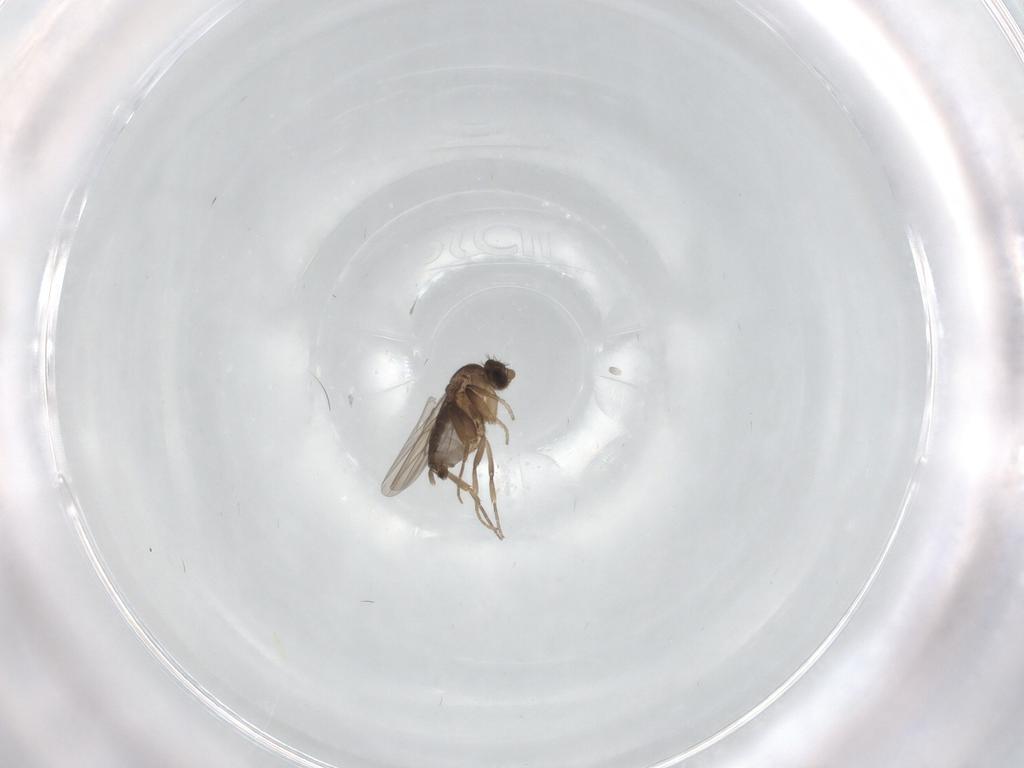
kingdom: Animalia
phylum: Arthropoda
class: Insecta
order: Diptera
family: Phoridae
